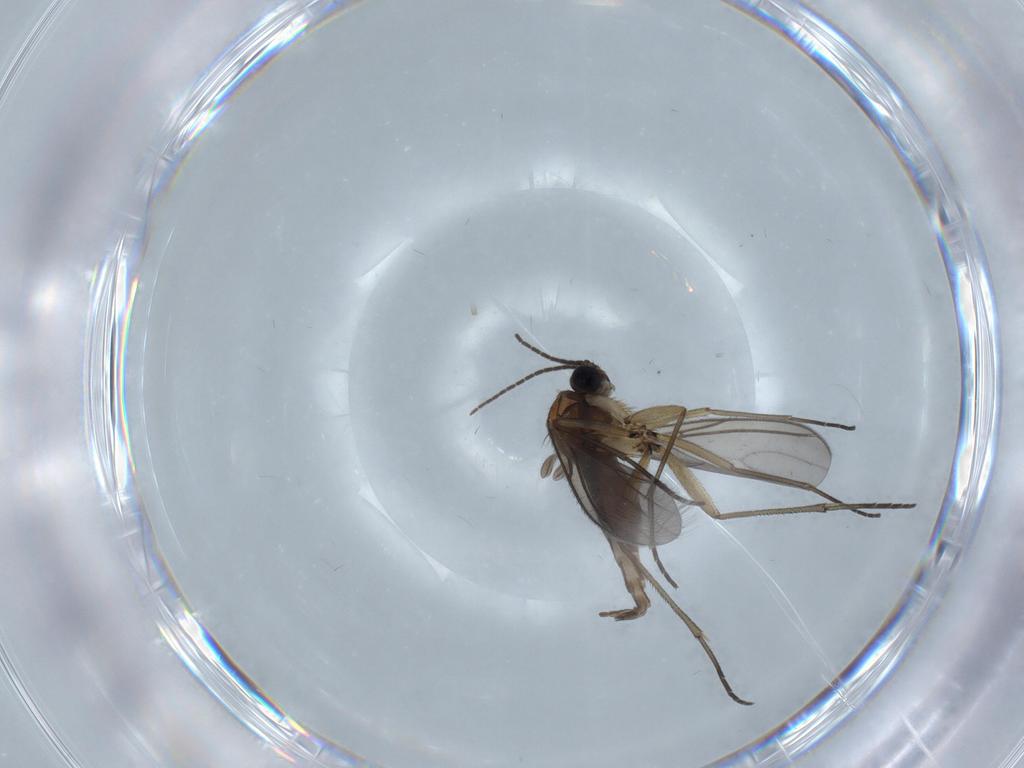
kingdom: Animalia
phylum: Arthropoda
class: Insecta
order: Diptera
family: Sciaridae
